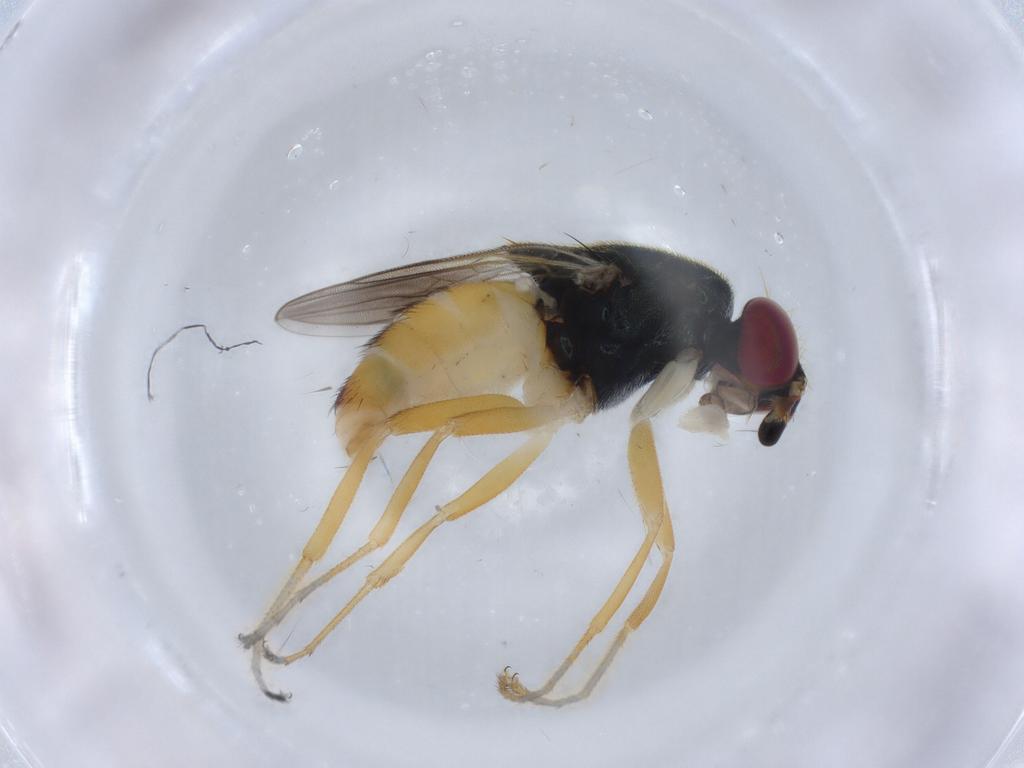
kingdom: Animalia
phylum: Arthropoda
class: Insecta
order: Diptera
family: Chloropidae
